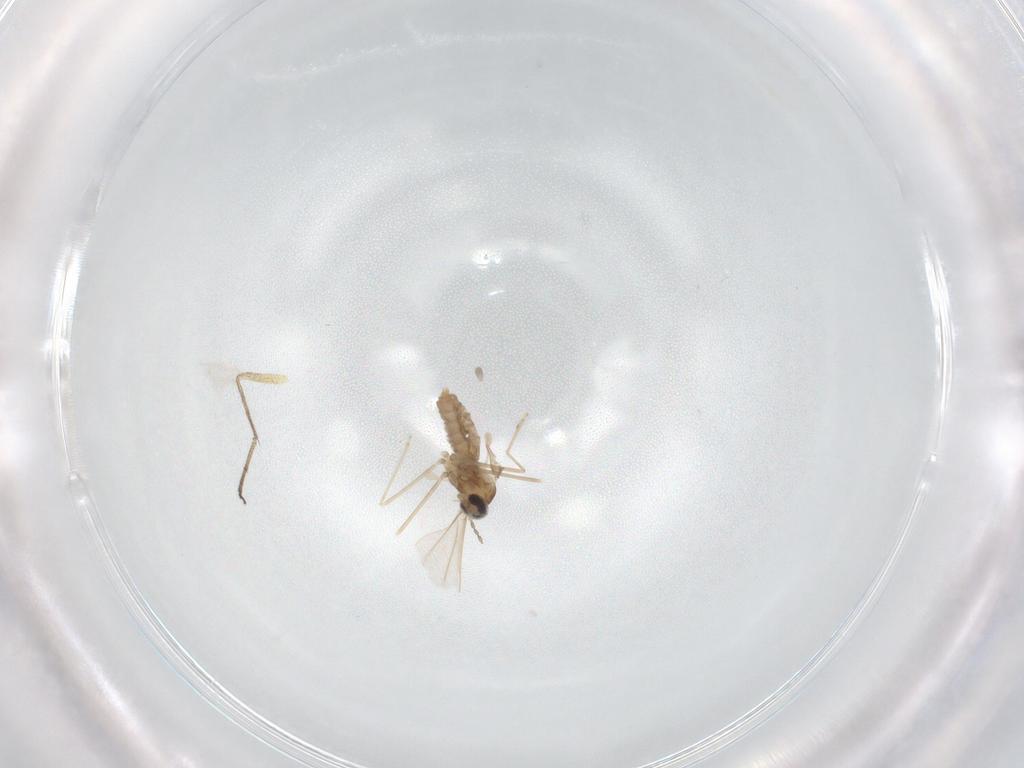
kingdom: Animalia
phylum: Arthropoda
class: Insecta
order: Diptera
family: Cecidomyiidae
